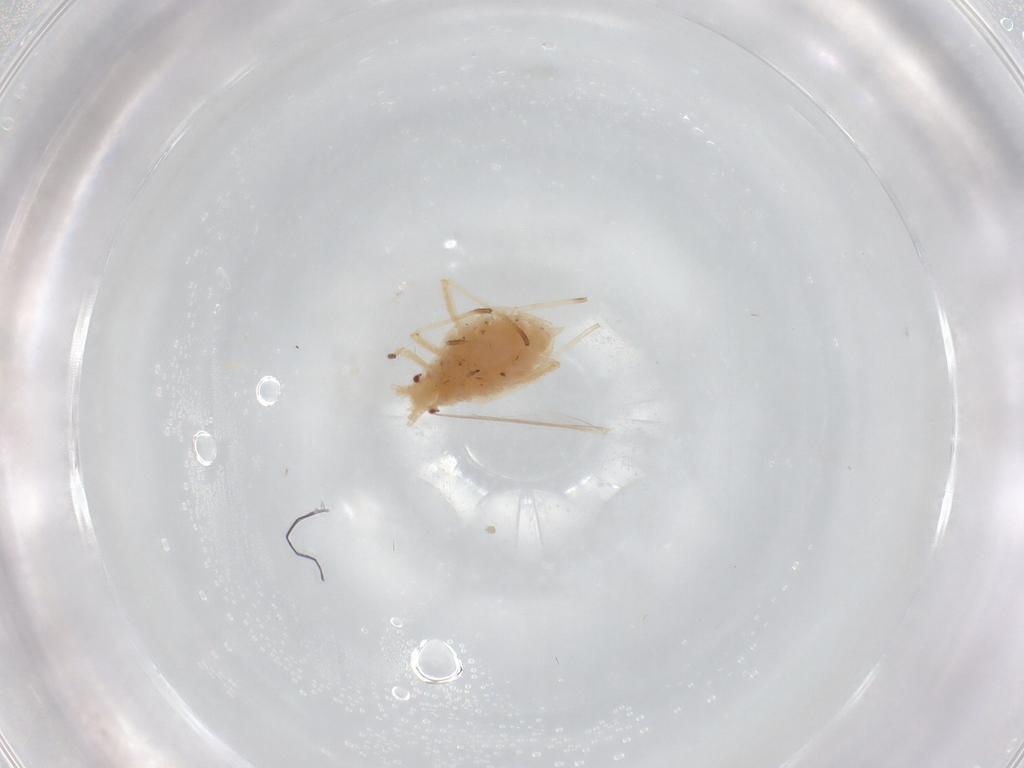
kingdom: Animalia
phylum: Arthropoda
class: Insecta
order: Hemiptera
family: Aphididae
